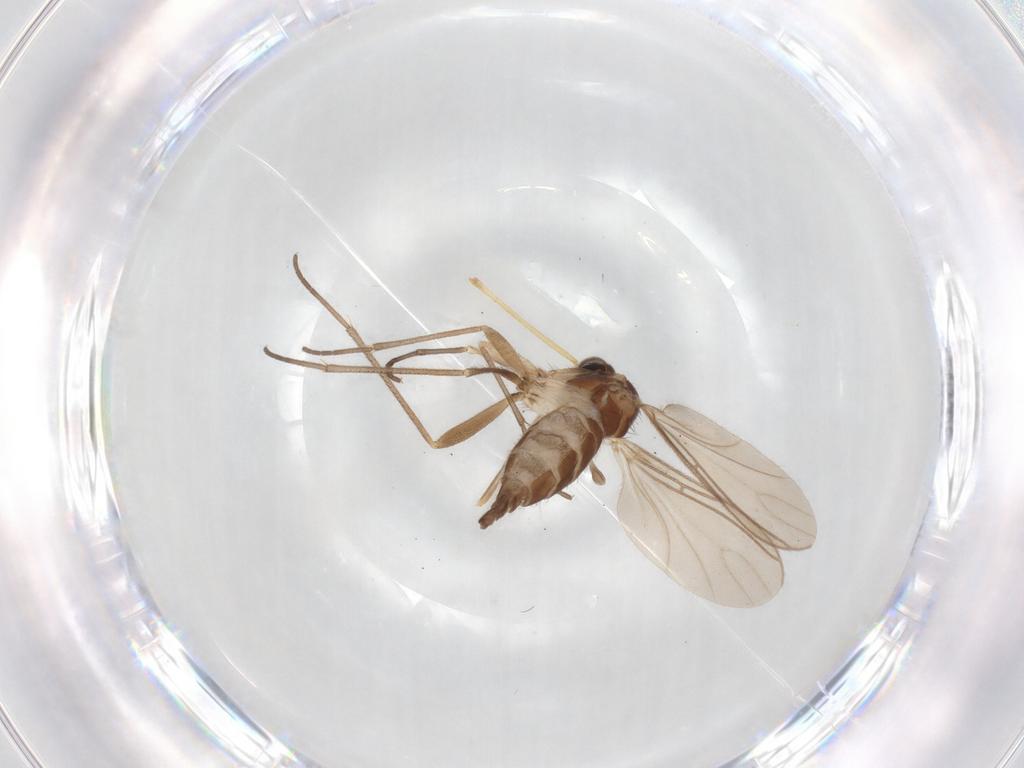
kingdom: Animalia
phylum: Arthropoda
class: Insecta
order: Diptera
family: Sciaridae
